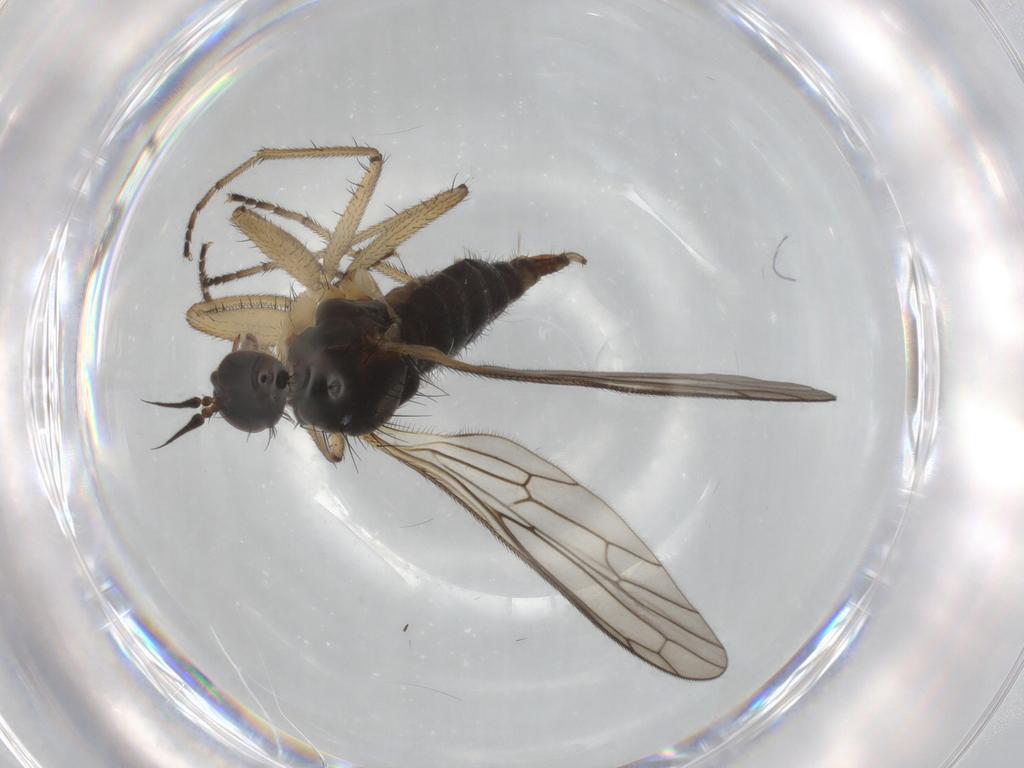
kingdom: Animalia
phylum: Arthropoda
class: Insecta
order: Diptera
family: Empididae
